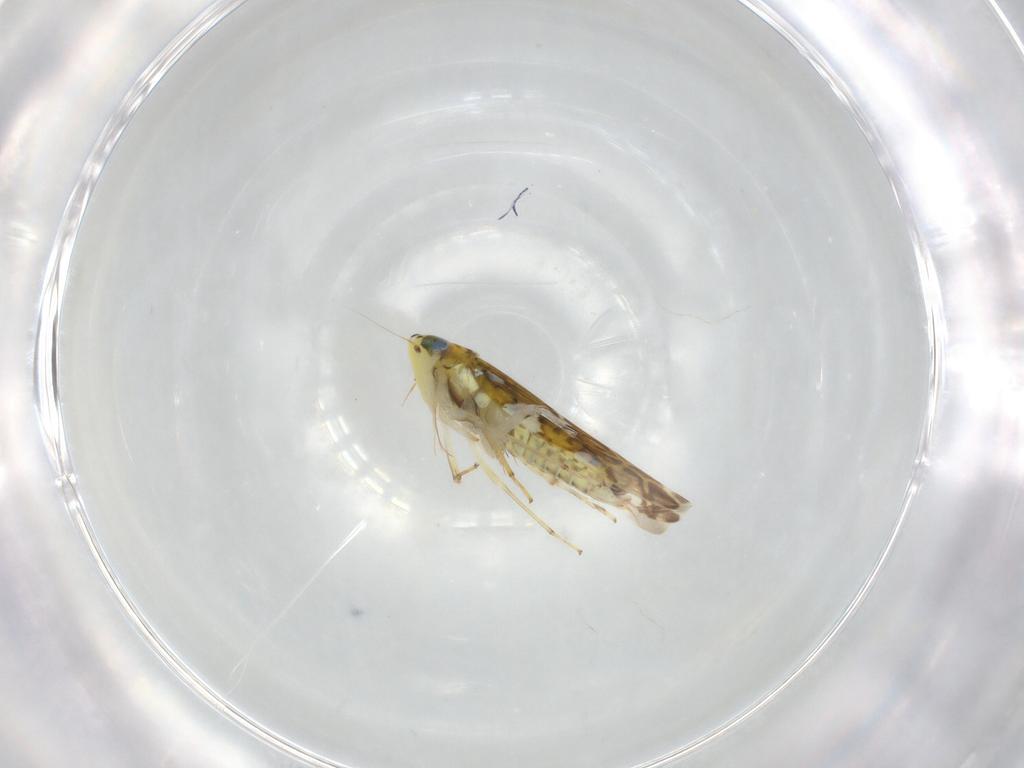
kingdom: Animalia
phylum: Arthropoda
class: Insecta
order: Hemiptera
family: Cicadellidae
